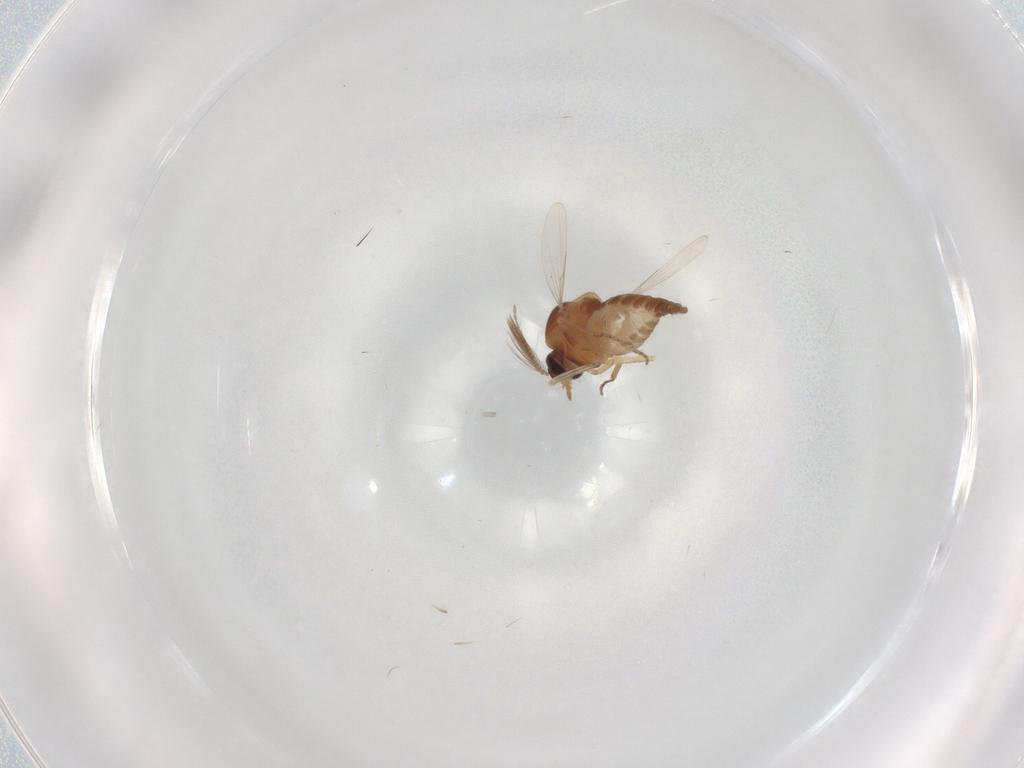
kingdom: Animalia
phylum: Arthropoda
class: Insecta
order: Diptera
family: Ceratopogonidae
